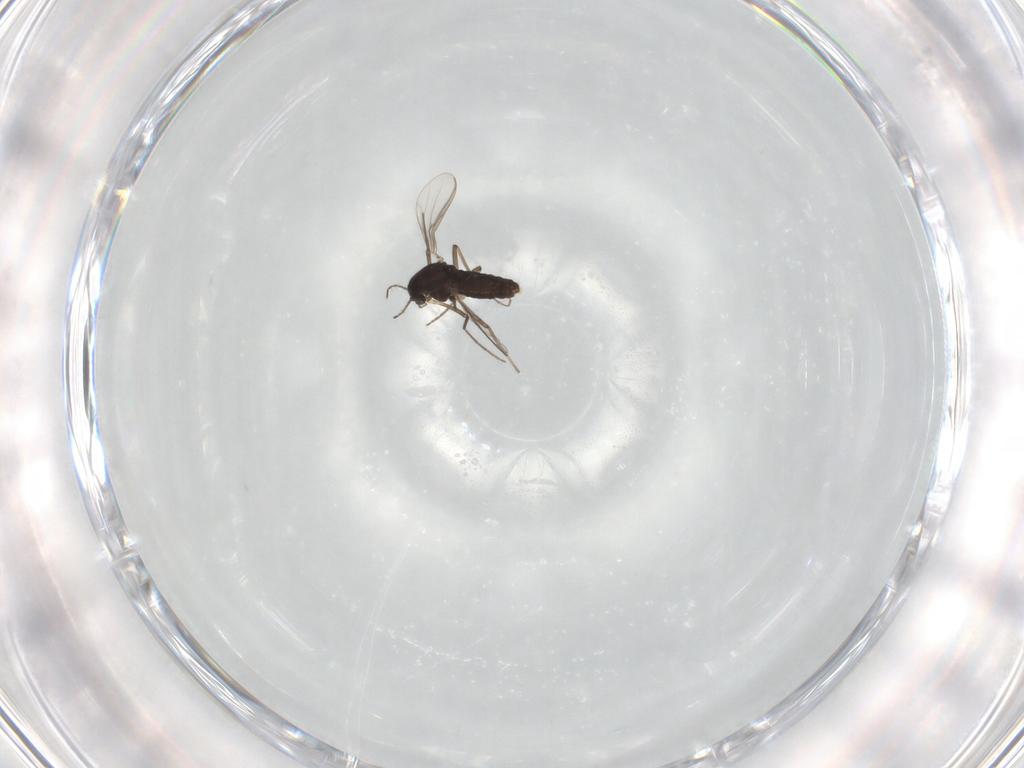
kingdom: Animalia
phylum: Arthropoda
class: Insecta
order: Diptera
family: Chironomidae
